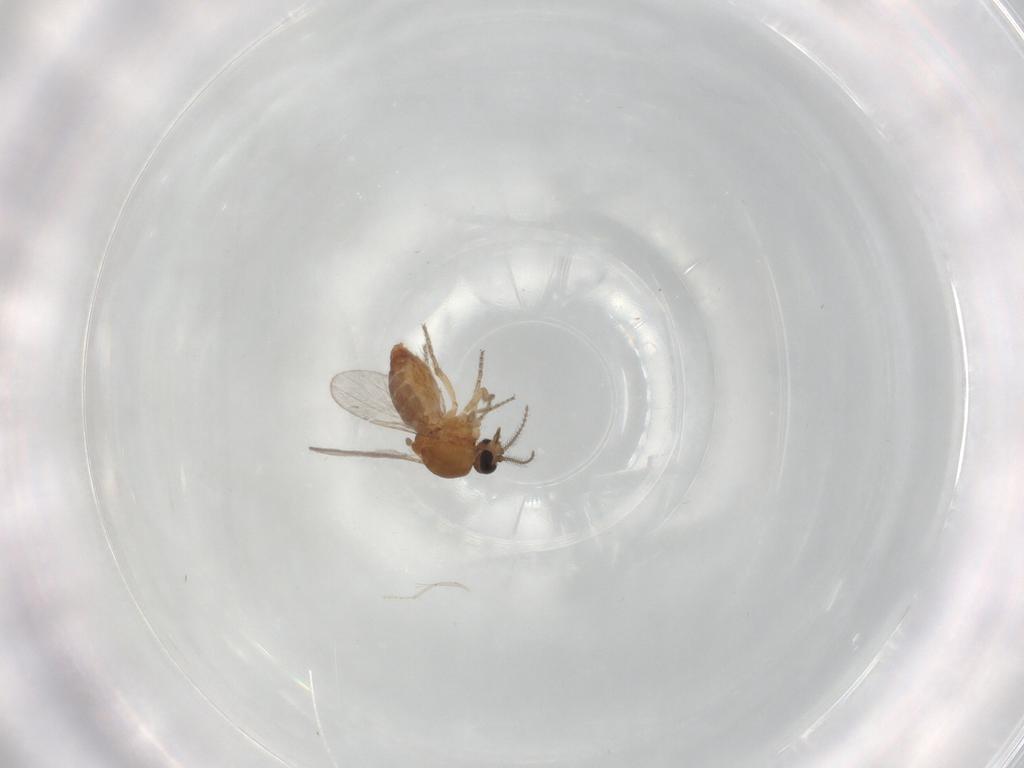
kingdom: Animalia
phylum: Arthropoda
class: Insecta
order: Diptera
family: Ceratopogonidae
